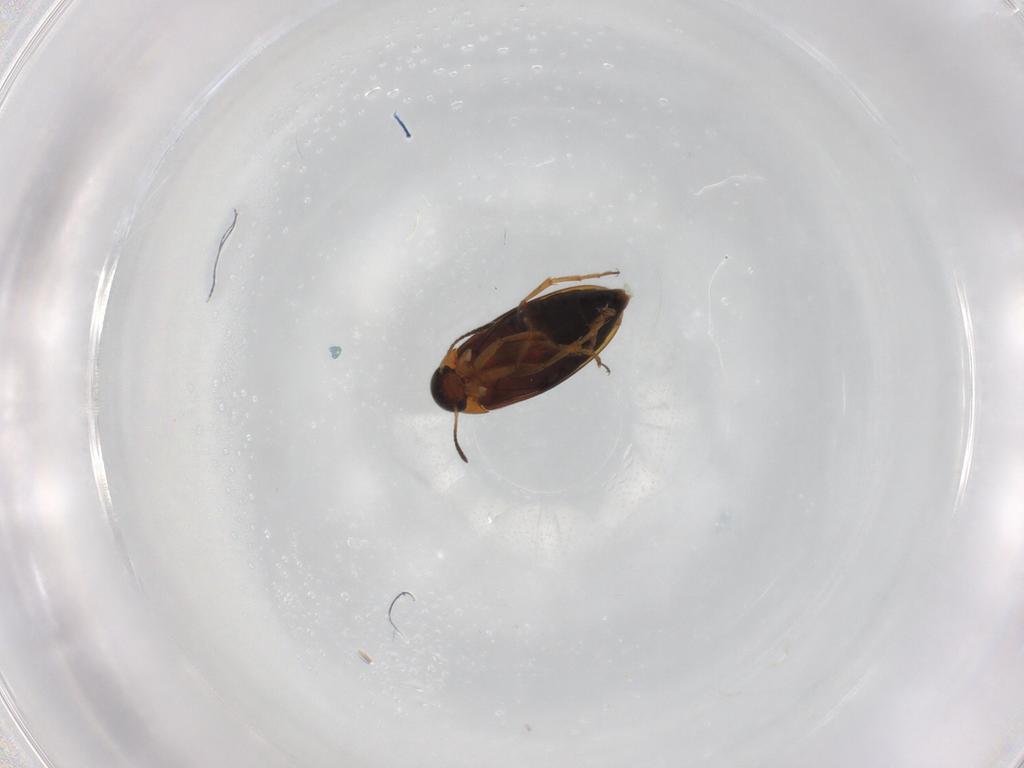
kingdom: Animalia
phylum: Arthropoda
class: Insecta
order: Coleoptera
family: Scraptiidae
